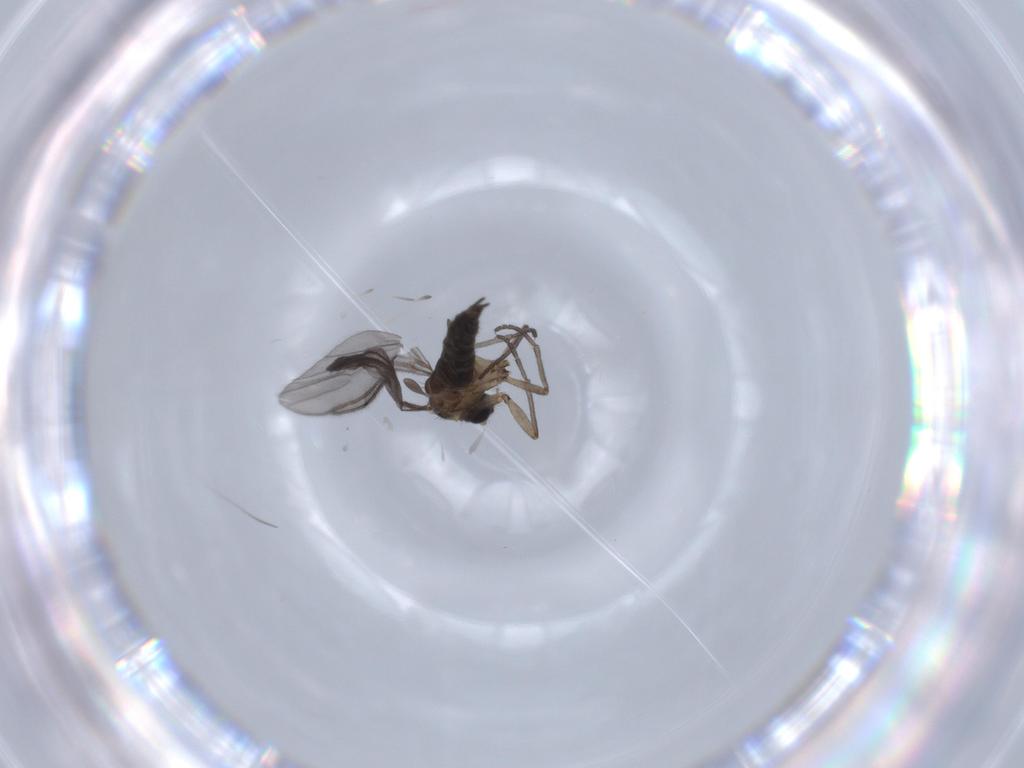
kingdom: Animalia
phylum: Arthropoda
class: Insecta
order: Diptera
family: Sciaridae
